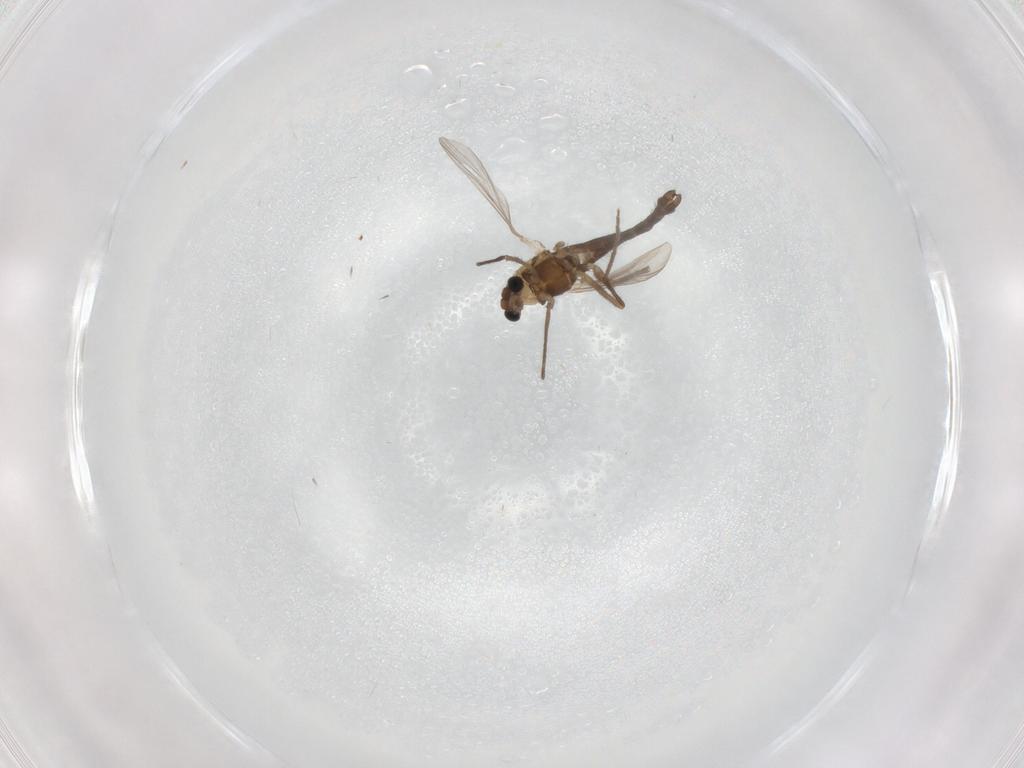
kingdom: Animalia
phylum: Arthropoda
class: Insecta
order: Diptera
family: Chironomidae
